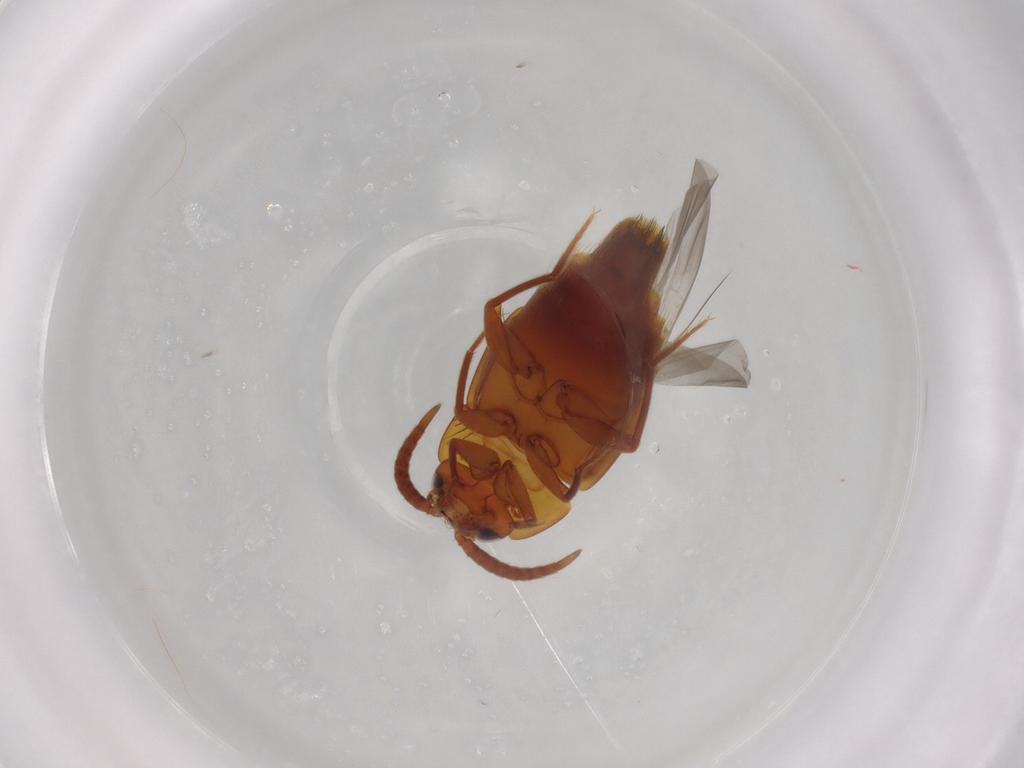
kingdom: Animalia
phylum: Arthropoda
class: Insecta
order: Coleoptera
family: Staphylinidae
